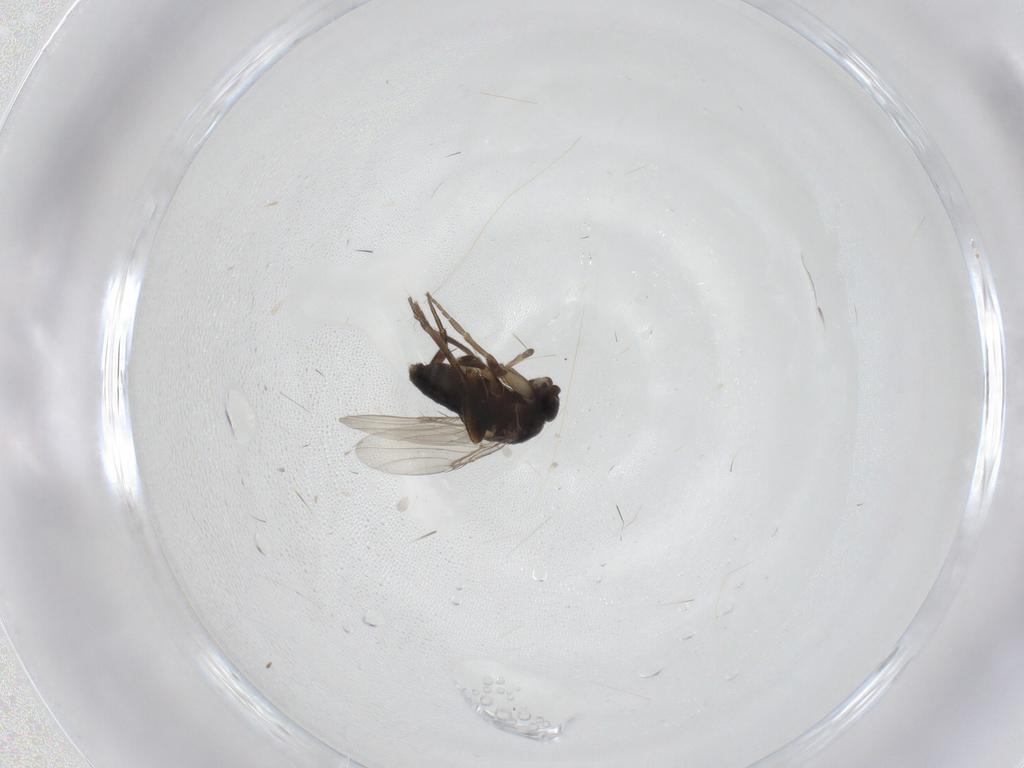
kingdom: Animalia
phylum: Arthropoda
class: Insecta
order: Diptera
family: Phoridae
